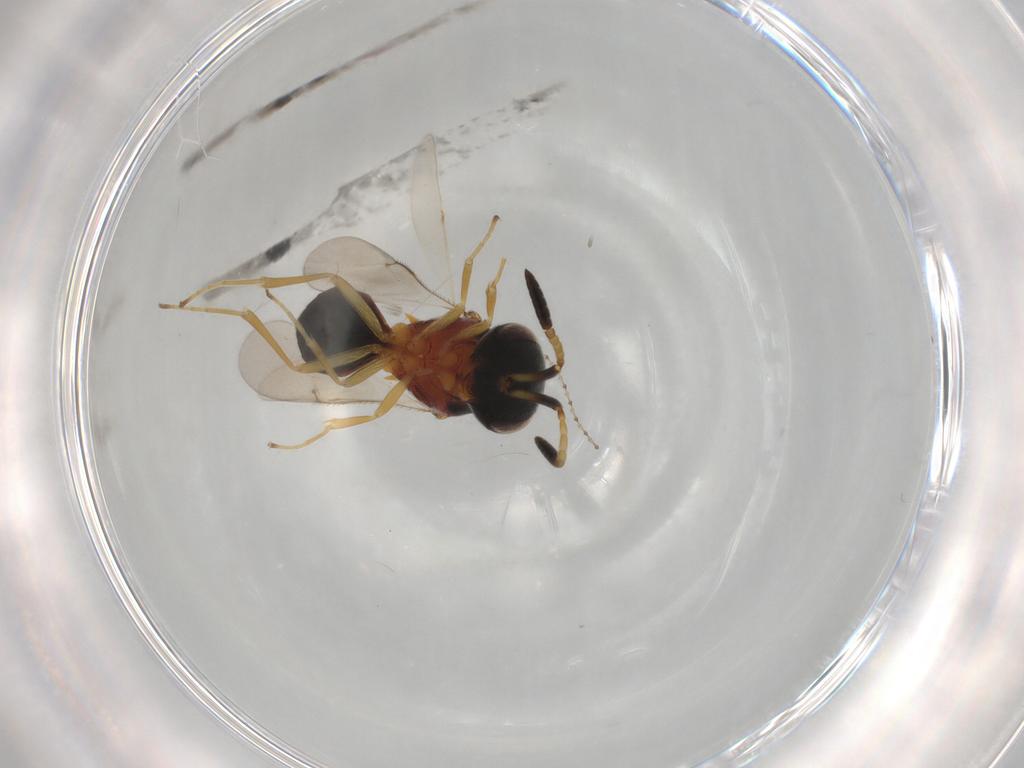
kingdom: Animalia
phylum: Arthropoda
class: Insecta
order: Hymenoptera
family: Scelionidae
